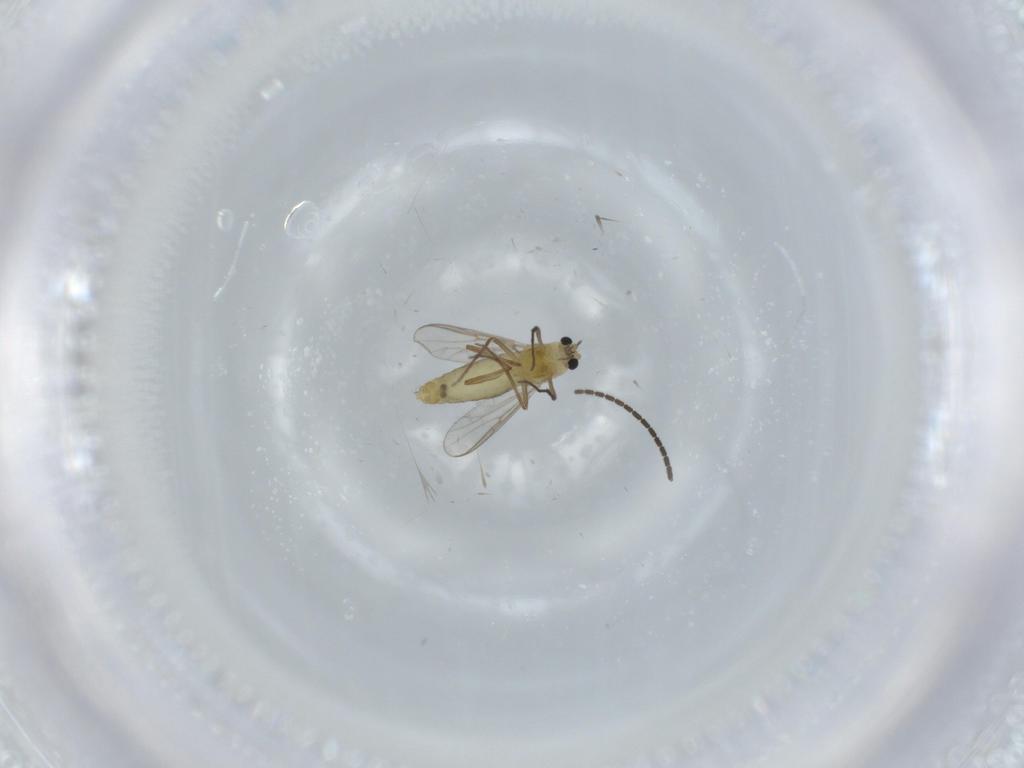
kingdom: Animalia
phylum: Arthropoda
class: Insecta
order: Diptera
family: Chironomidae
